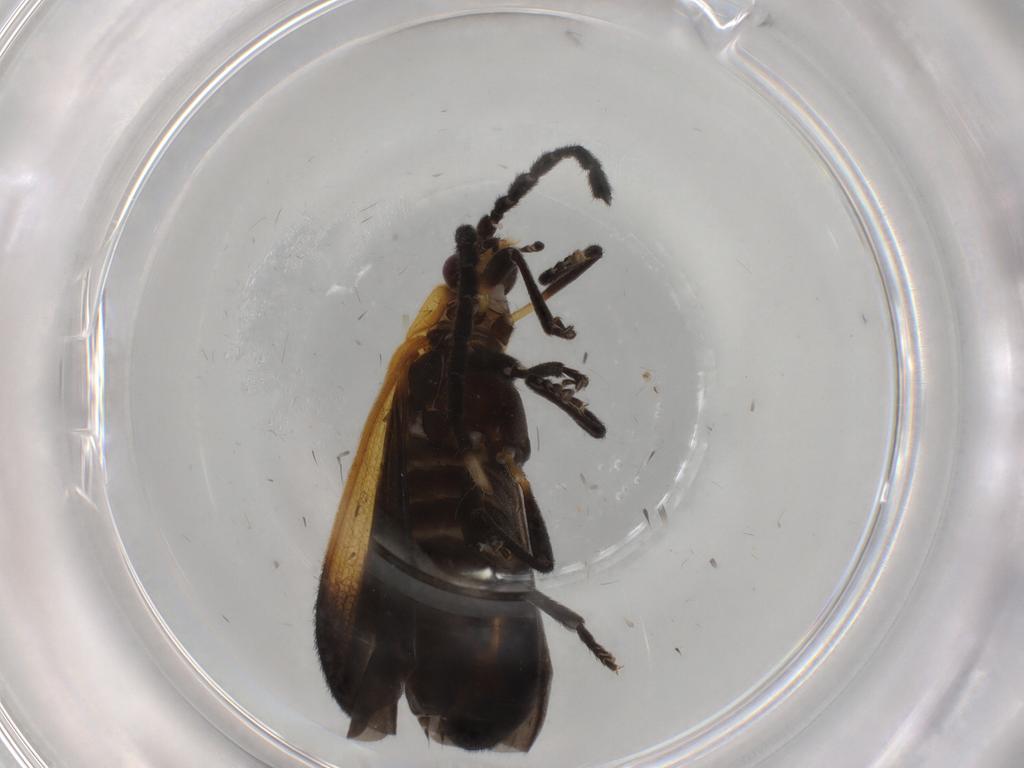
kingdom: Animalia
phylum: Arthropoda
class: Insecta
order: Coleoptera
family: Lycidae
